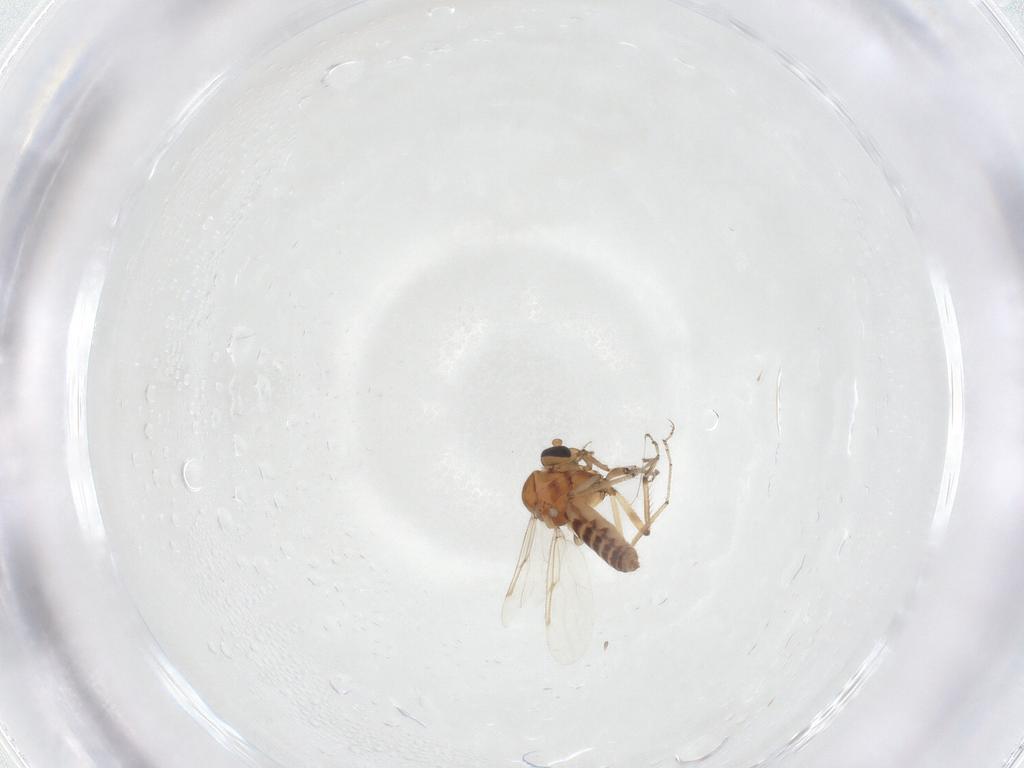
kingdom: Animalia
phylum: Arthropoda
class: Insecta
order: Diptera
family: Ceratopogonidae
